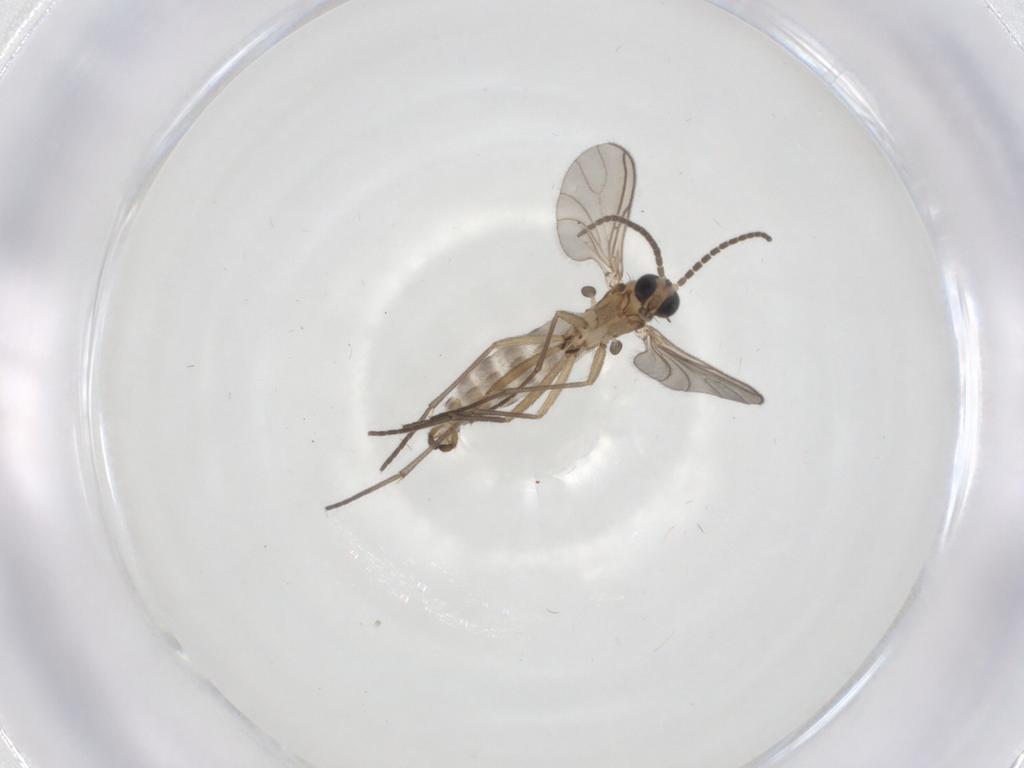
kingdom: Animalia
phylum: Arthropoda
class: Insecta
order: Diptera
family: Sciaridae
